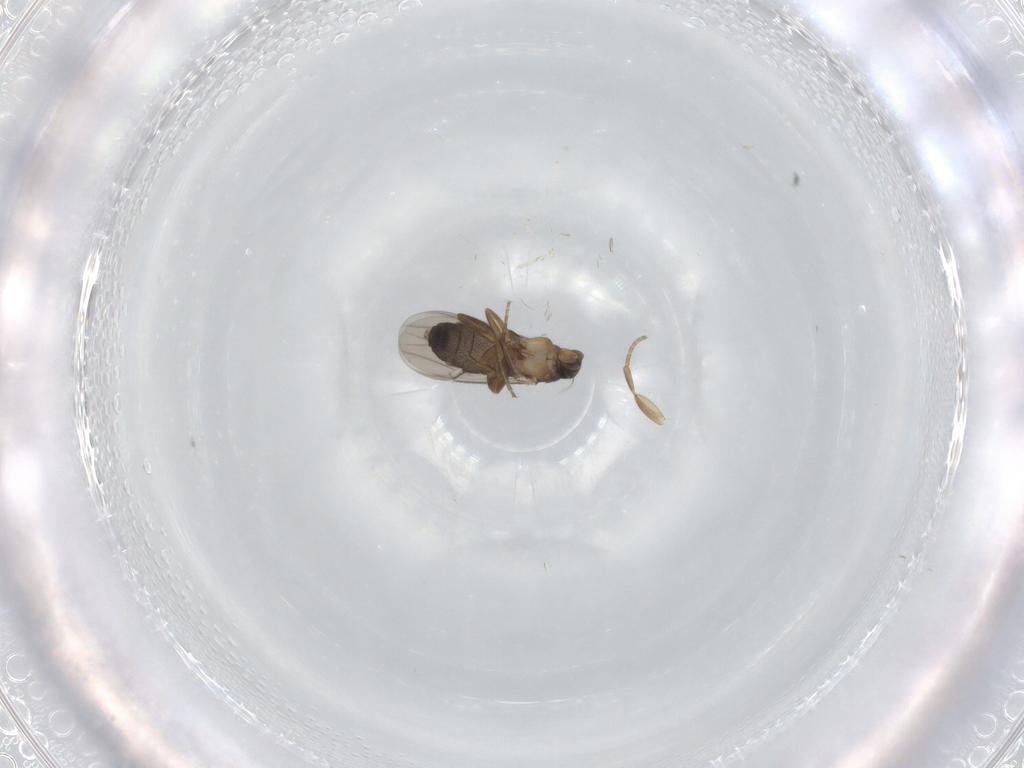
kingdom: Animalia
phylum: Arthropoda
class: Insecta
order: Diptera
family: Phoridae
